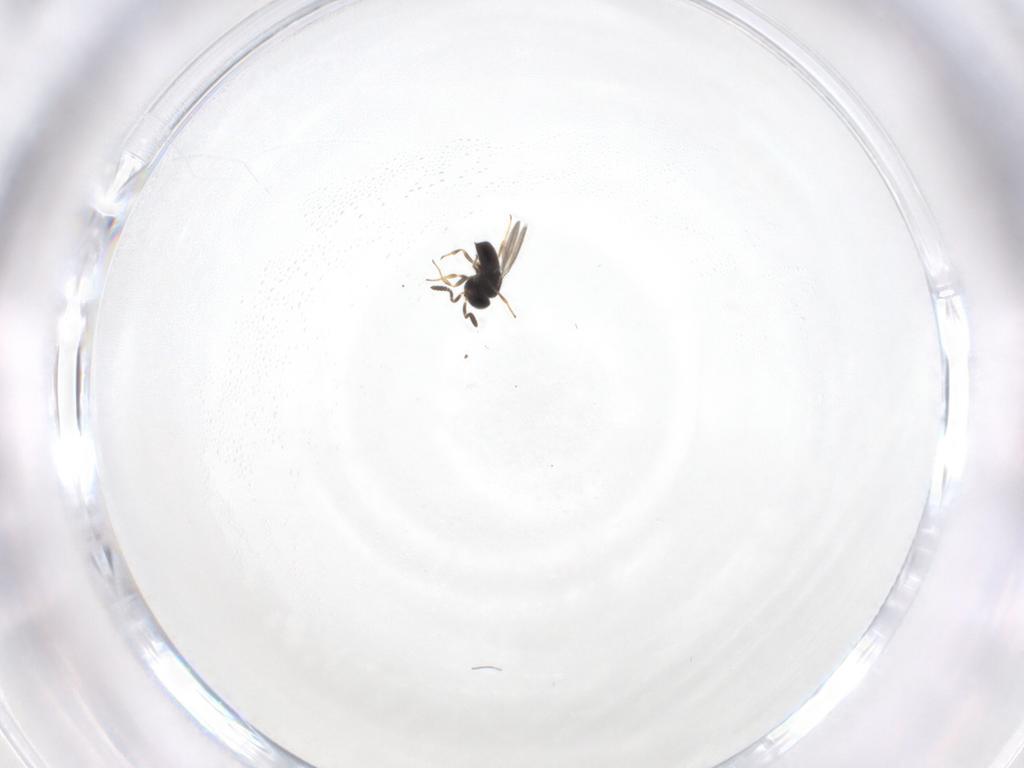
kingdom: Animalia
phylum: Arthropoda
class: Insecta
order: Hymenoptera
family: Scelionidae
